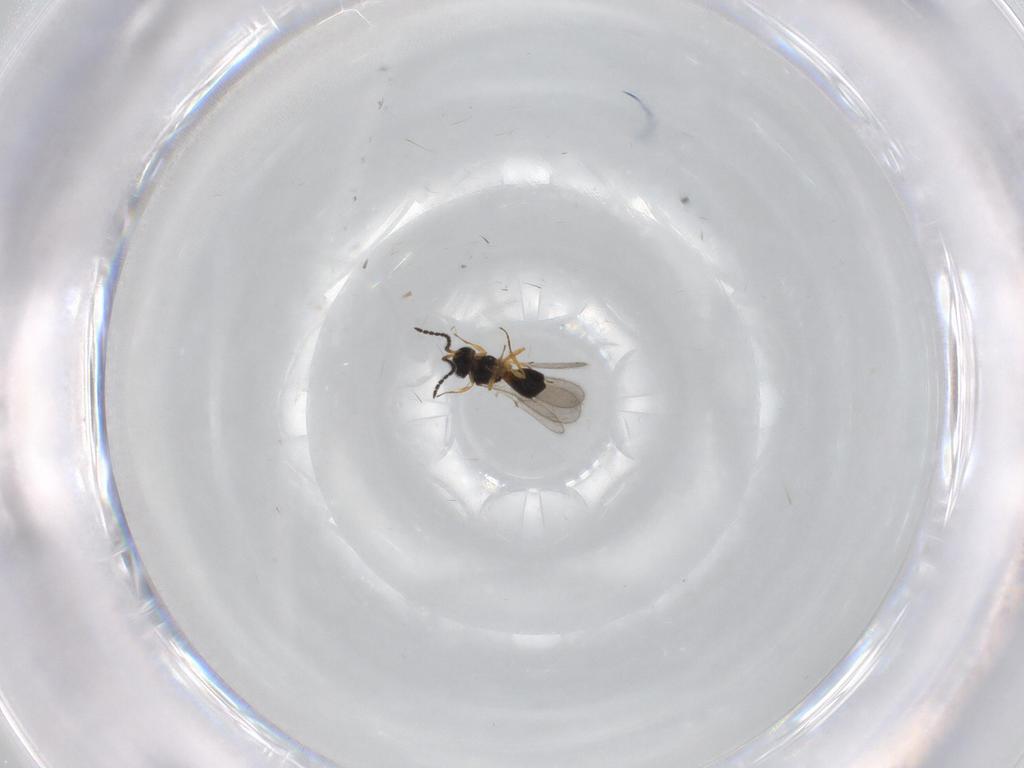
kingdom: Animalia
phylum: Arthropoda
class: Insecta
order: Hymenoptera
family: Scelionidae
